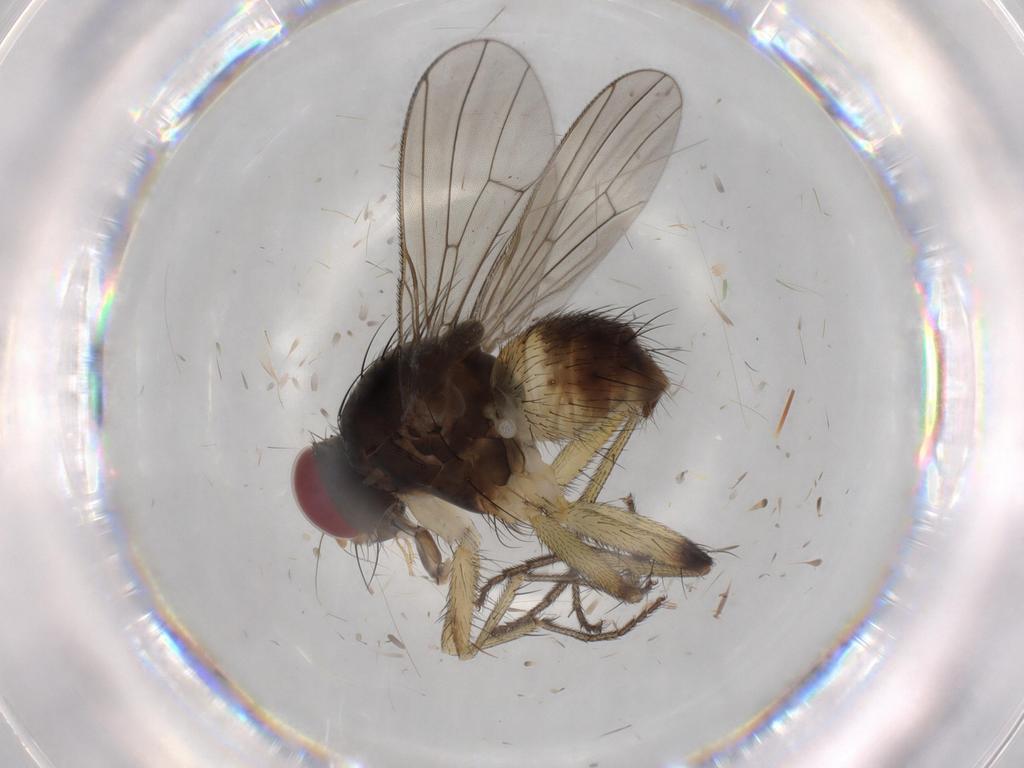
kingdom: Animalia
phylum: Arthropoda
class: Insecta
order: Diptera
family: Ceratopogonidae
